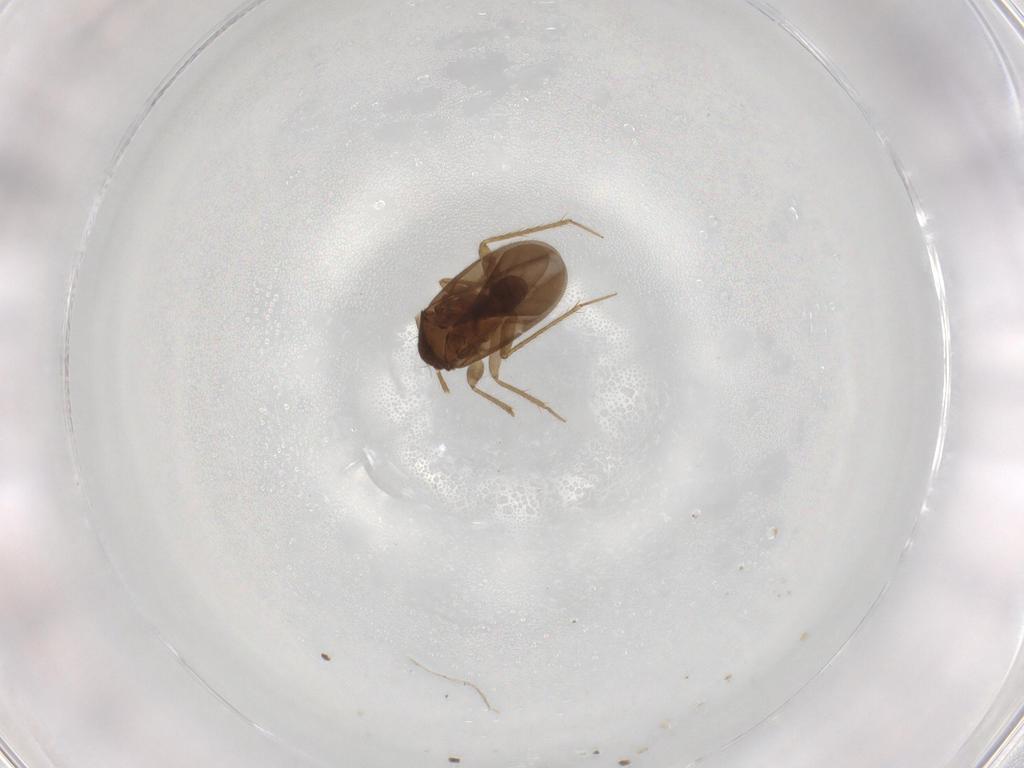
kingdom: Animalia
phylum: Arthropoda
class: Insecta
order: Hemiptera
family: Ceratocombidae
